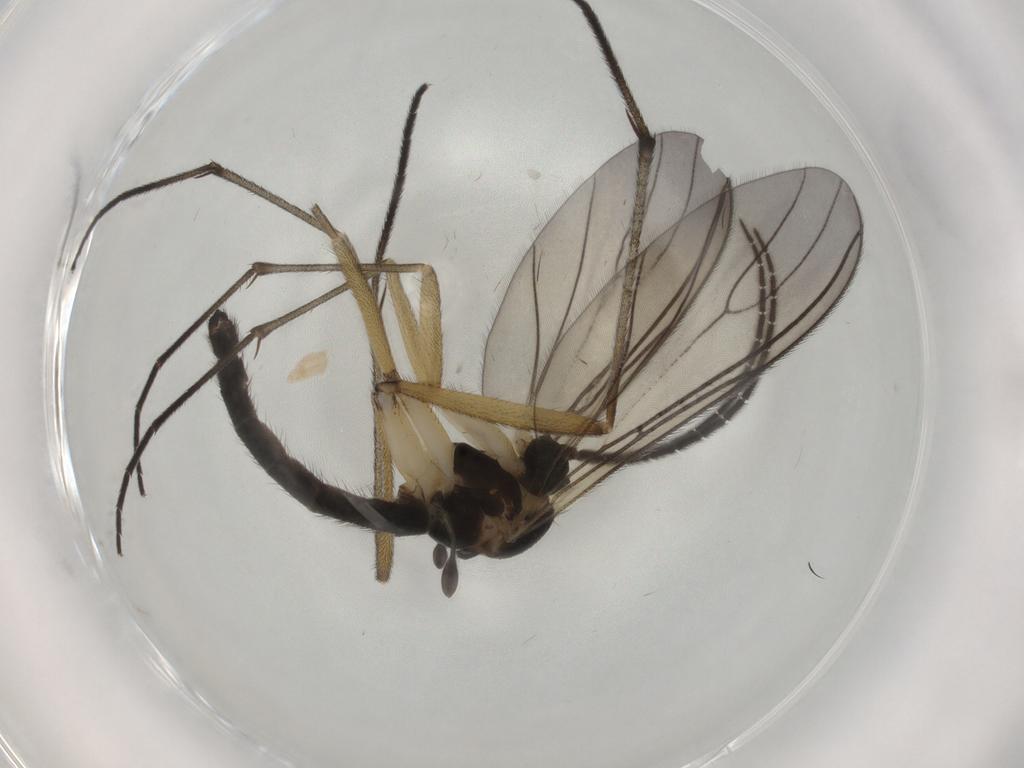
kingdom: Animalia
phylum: Arthropoda
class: Insecta
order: Diptera
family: Sciaridae
